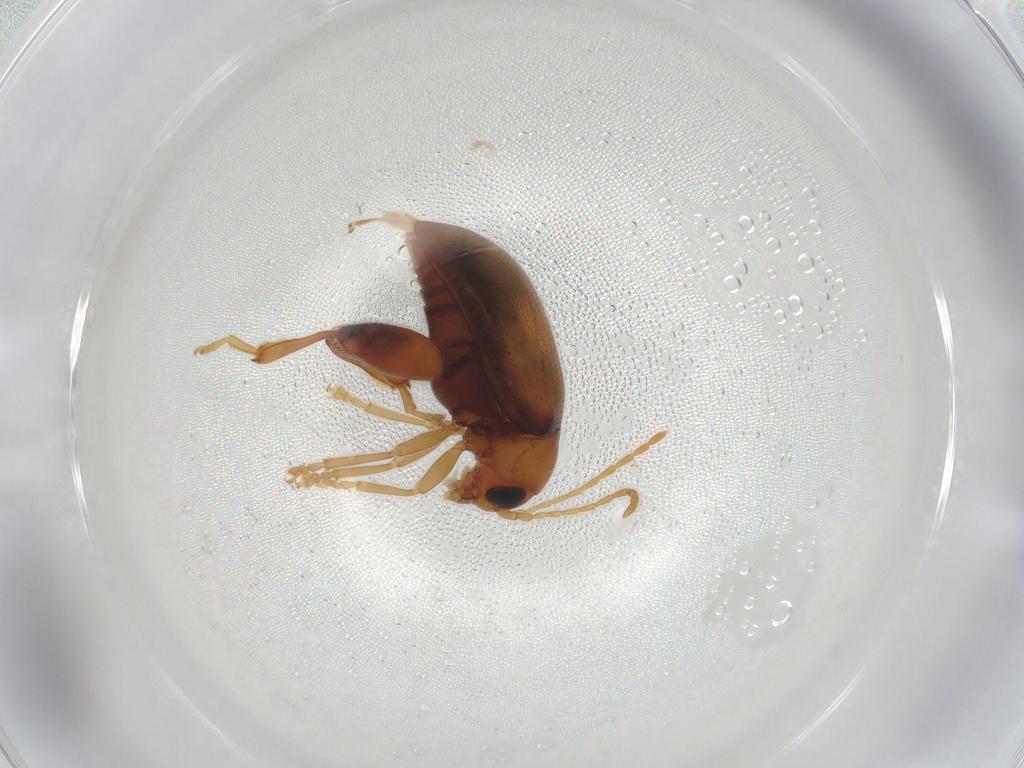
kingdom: Animalia
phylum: Arthropoda
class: Insecta
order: Coleoptera
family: Chrysomelidae
